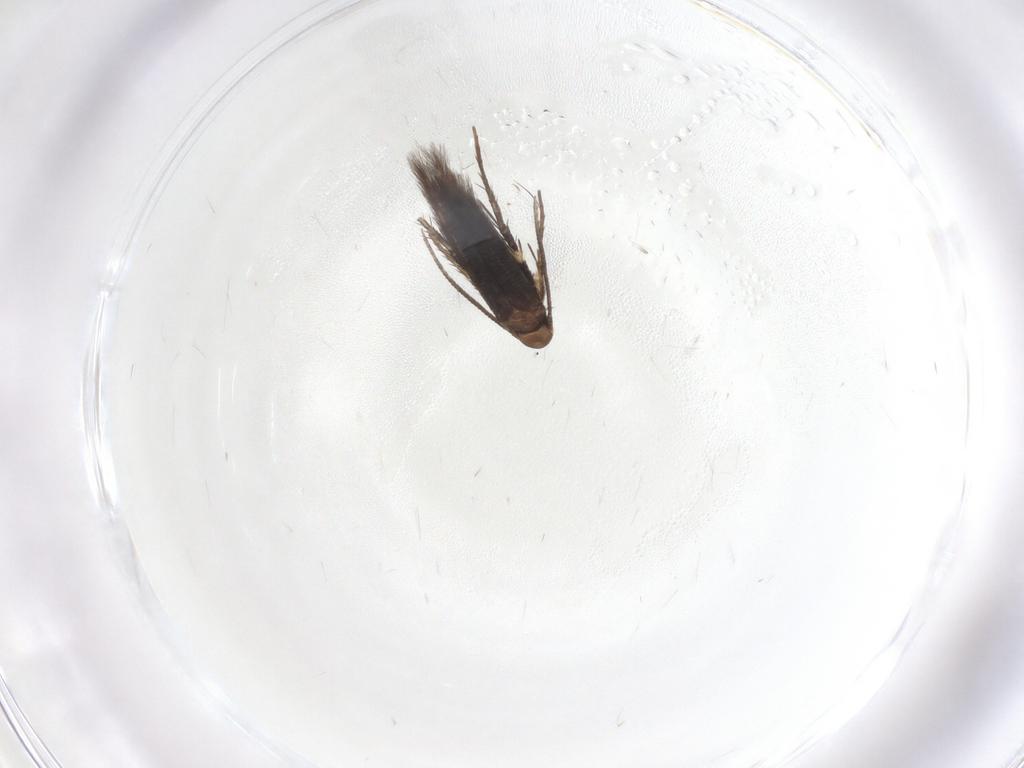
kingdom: Animalia
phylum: Arthropoda
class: Insecta
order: Lepidoptera
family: Gelechiidae
